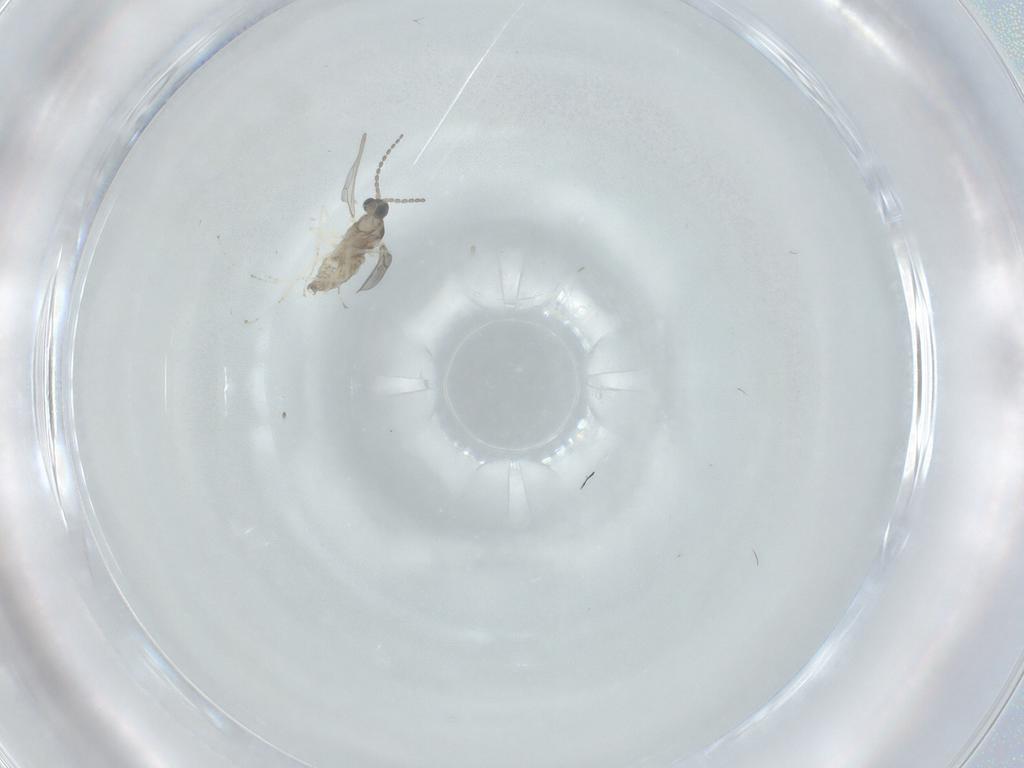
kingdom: Animalia
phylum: Arthropoda
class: Insecta
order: Diptera
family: Cecidomyiidae
